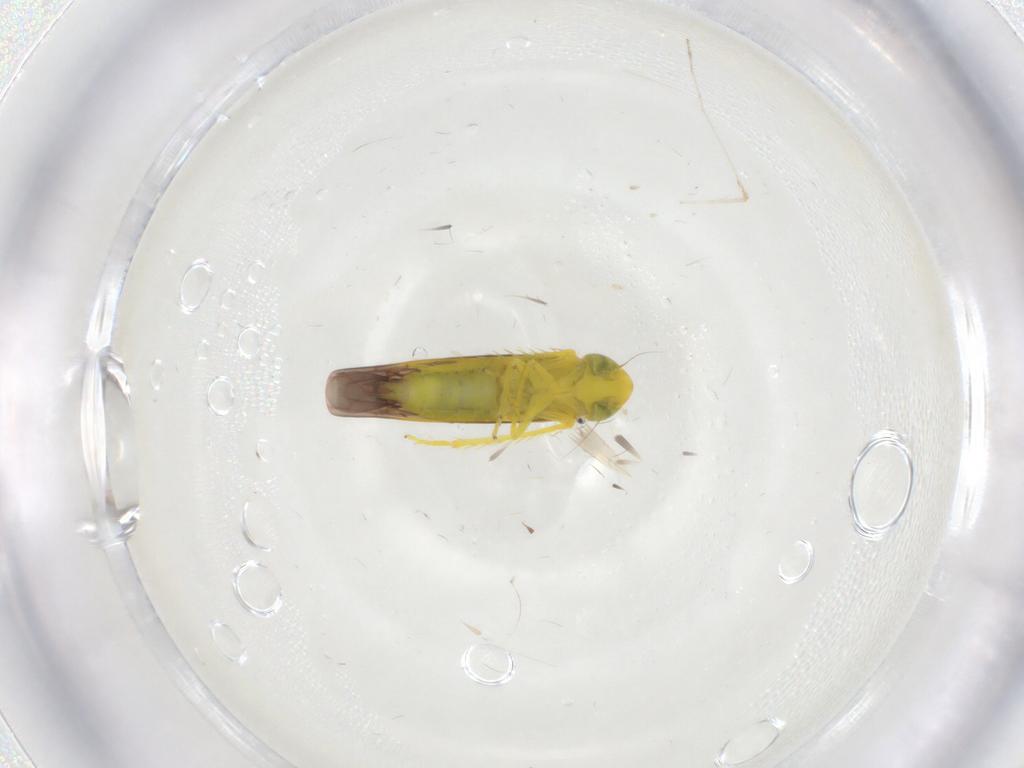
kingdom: Animalia
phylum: Arthropoda
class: Insecta
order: Hemiptera
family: Cicadellidae
